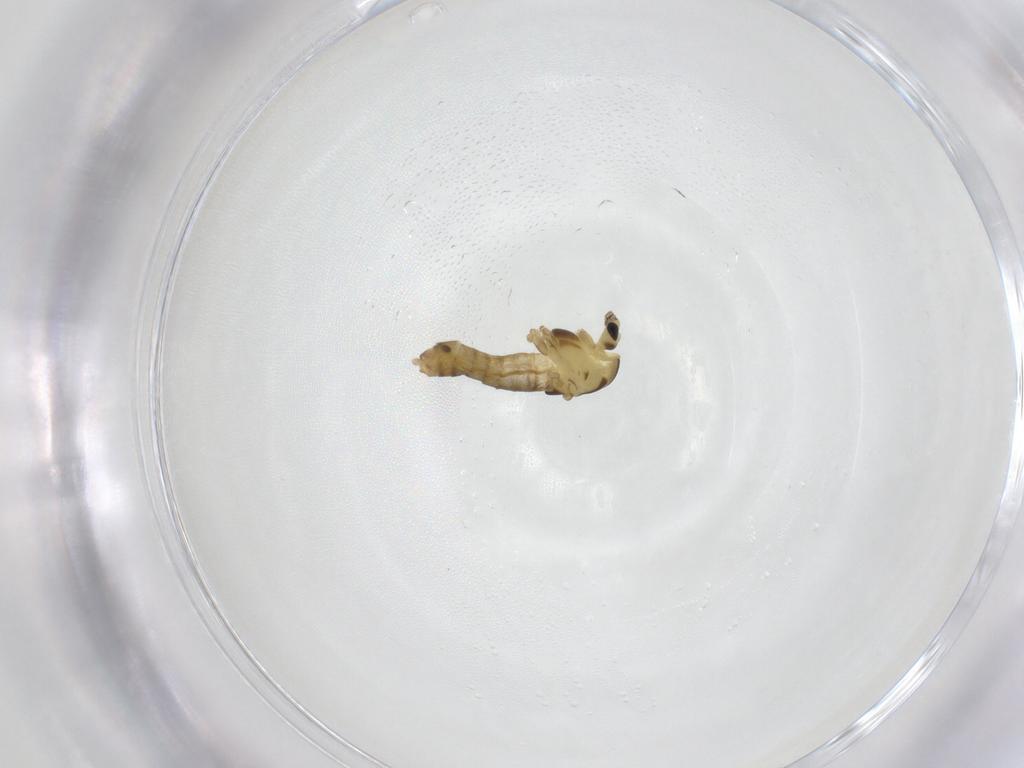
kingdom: Animalia
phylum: Arthropoda
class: Insecta
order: Diptera
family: Chironomidae
